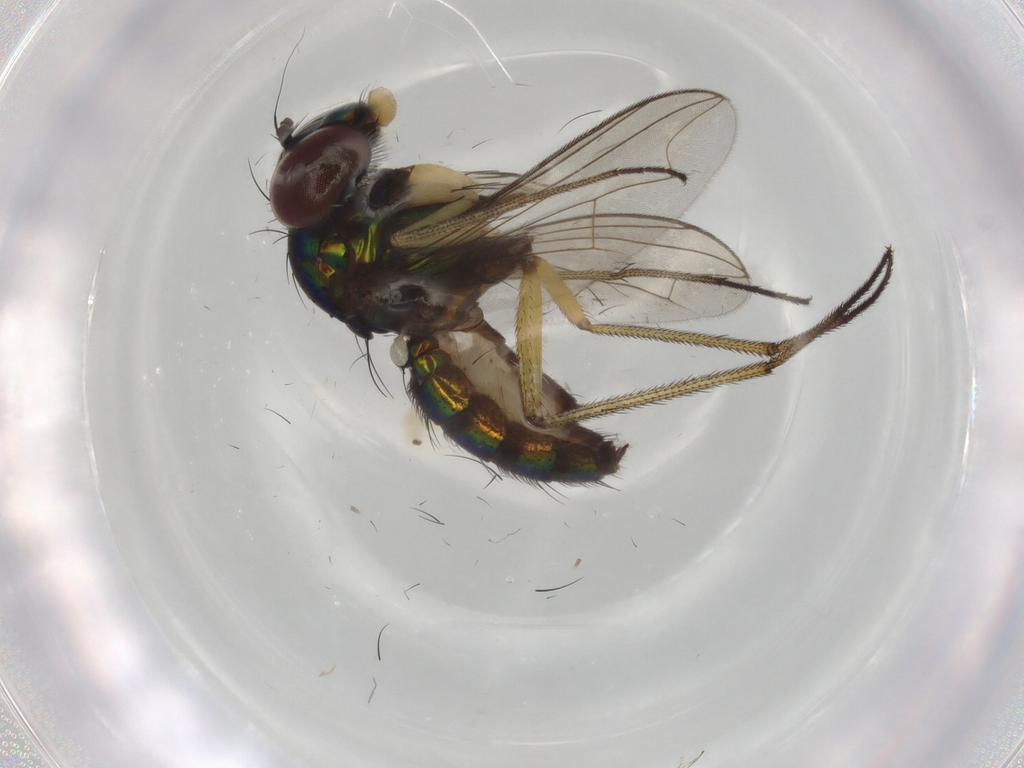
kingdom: Animalia
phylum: Arthropoda
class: Insecta
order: Diptera
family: Dolichopodidae
